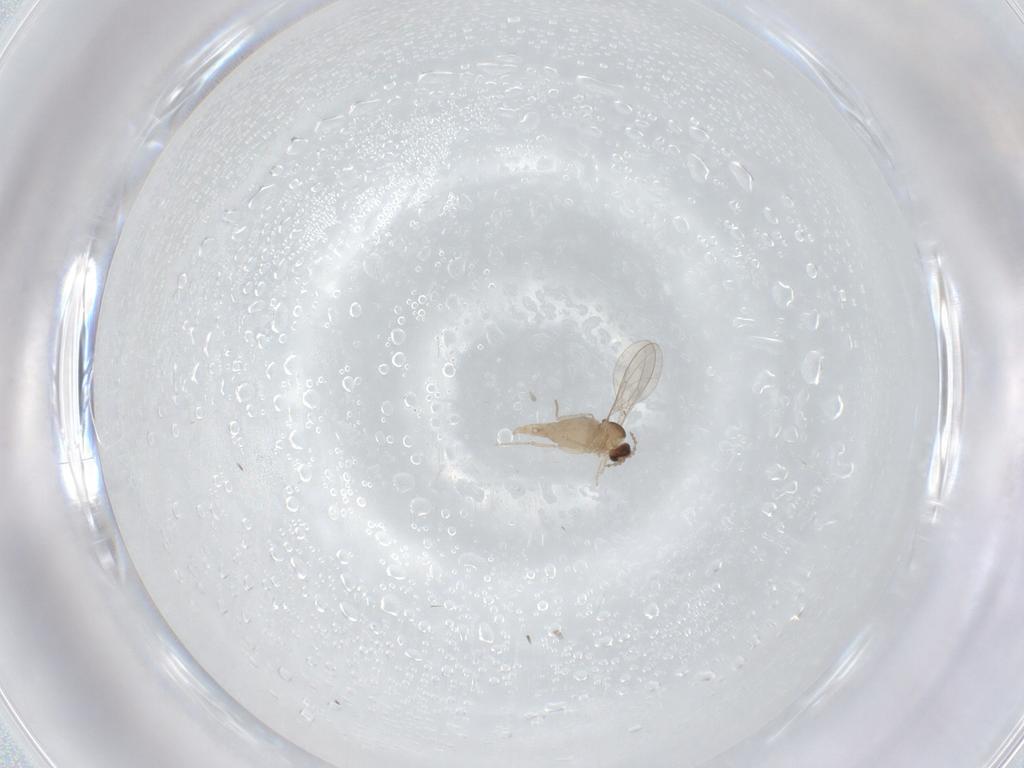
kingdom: Animalia
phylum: Arthropoda
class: Insecta
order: Diptera
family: Cecidomyiidae
